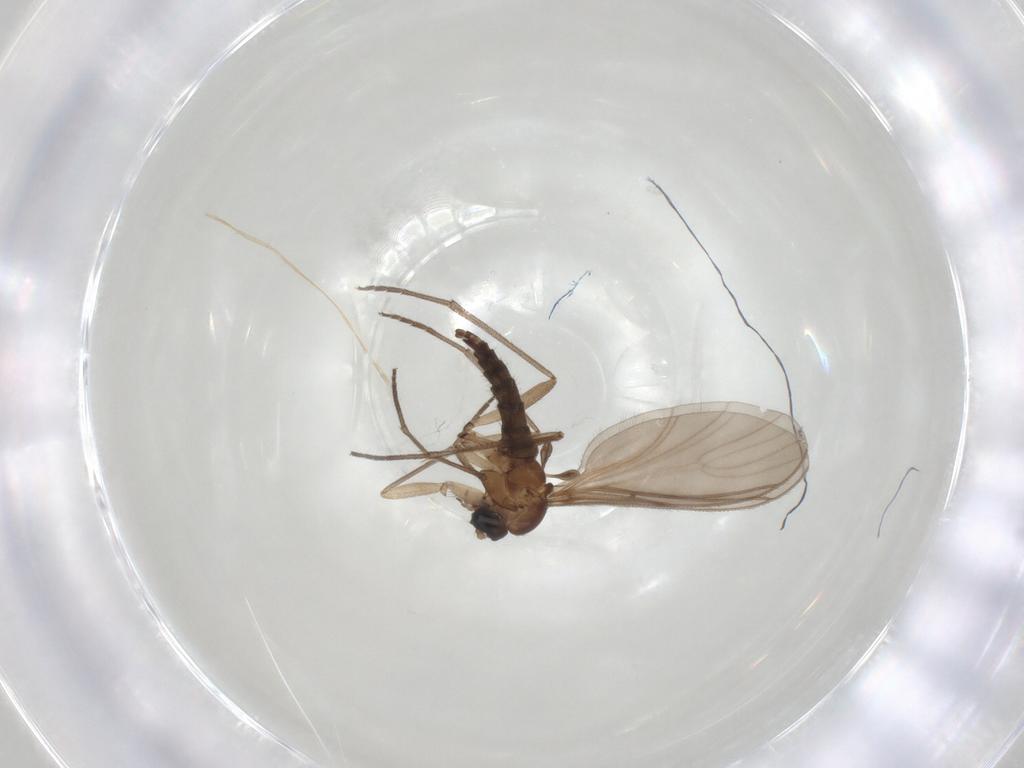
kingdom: Animalia
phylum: Arthropoda
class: Insecta
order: Diptera
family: Sciaridae
